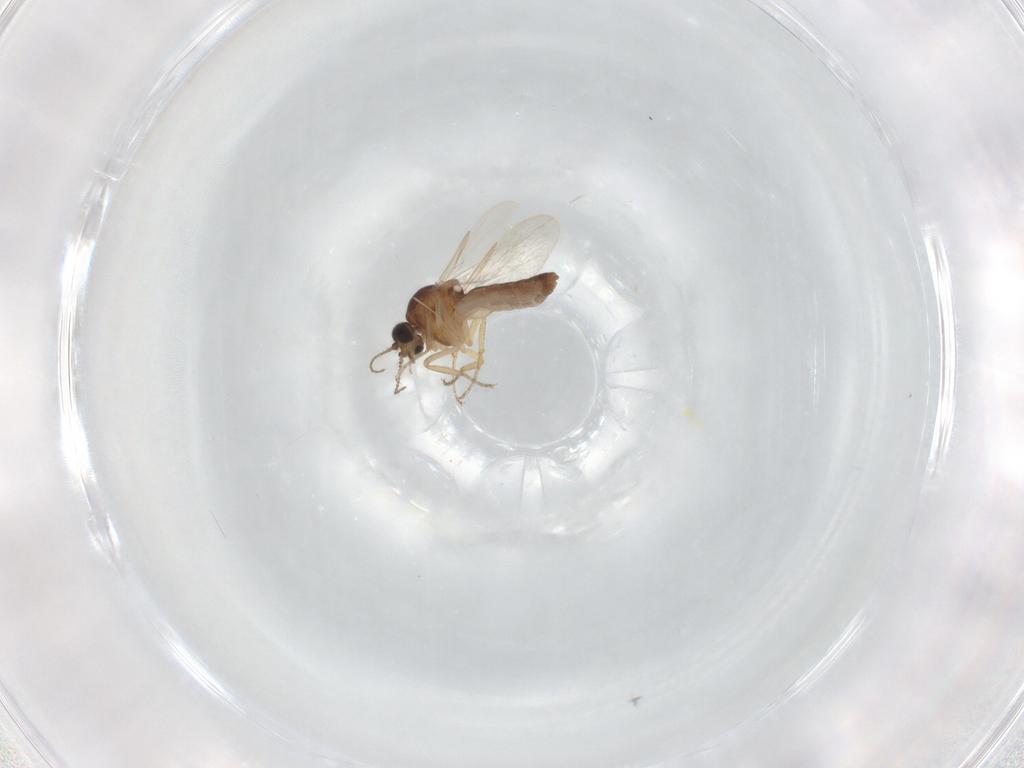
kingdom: Animalia
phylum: Arthropoda
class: Insecta
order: Diptera
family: Ceratopogonidae
